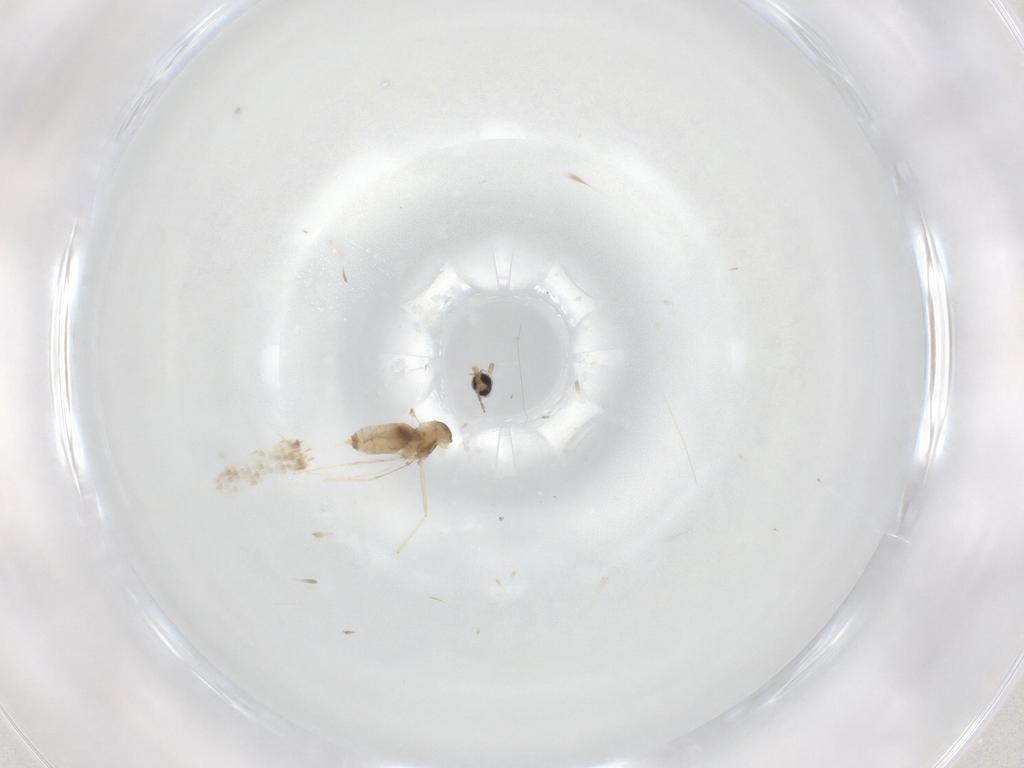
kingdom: Animalia
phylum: Arthropoda
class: Insecta
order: Diptera
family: Cecidomyiidae
